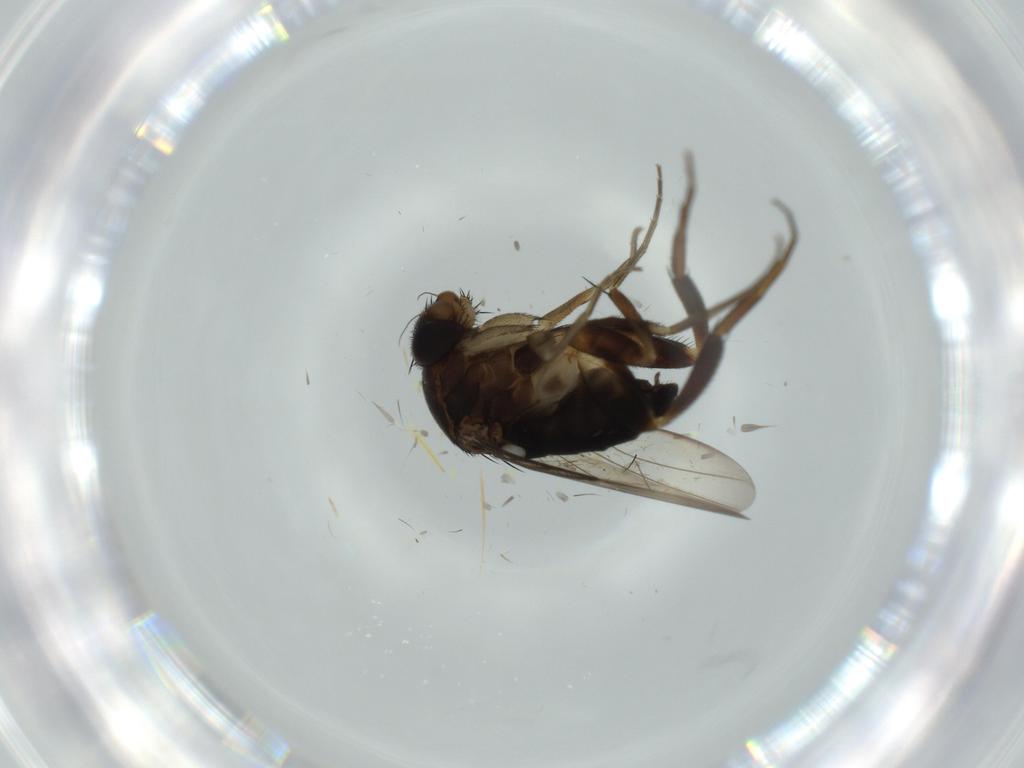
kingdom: Animalia
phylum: Arthropoda
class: Insecta
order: Diptera
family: Phoridae
